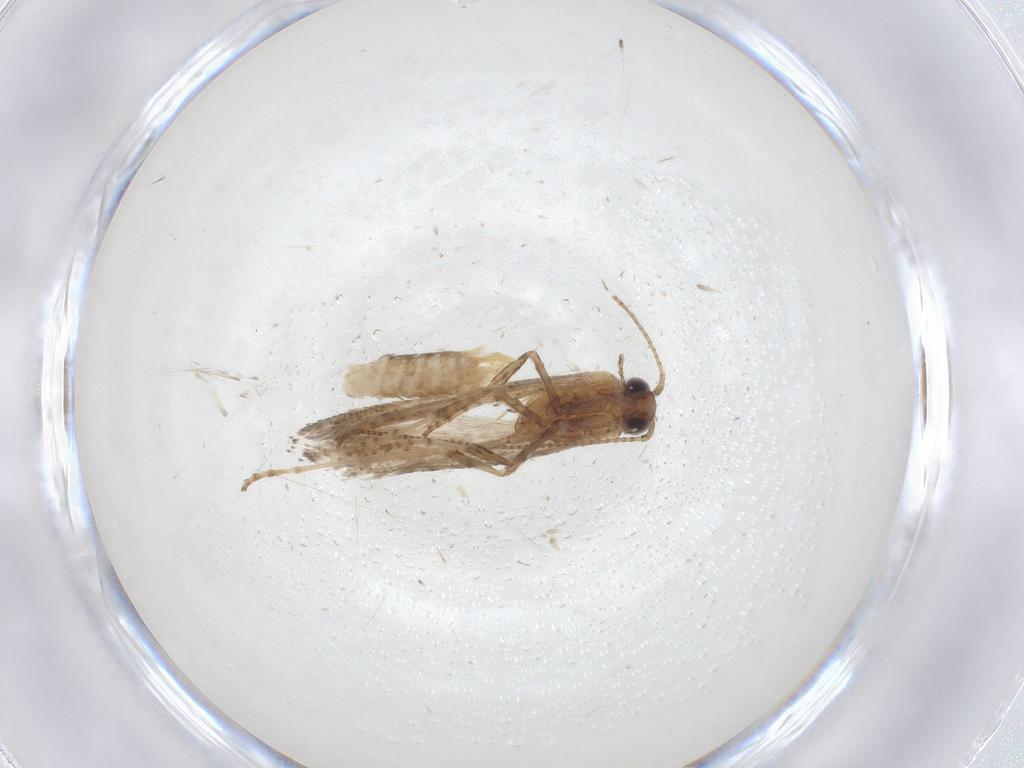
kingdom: Animalia
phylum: Arthropoda
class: Insecta
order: Lepidoptera
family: Gracillariidae
